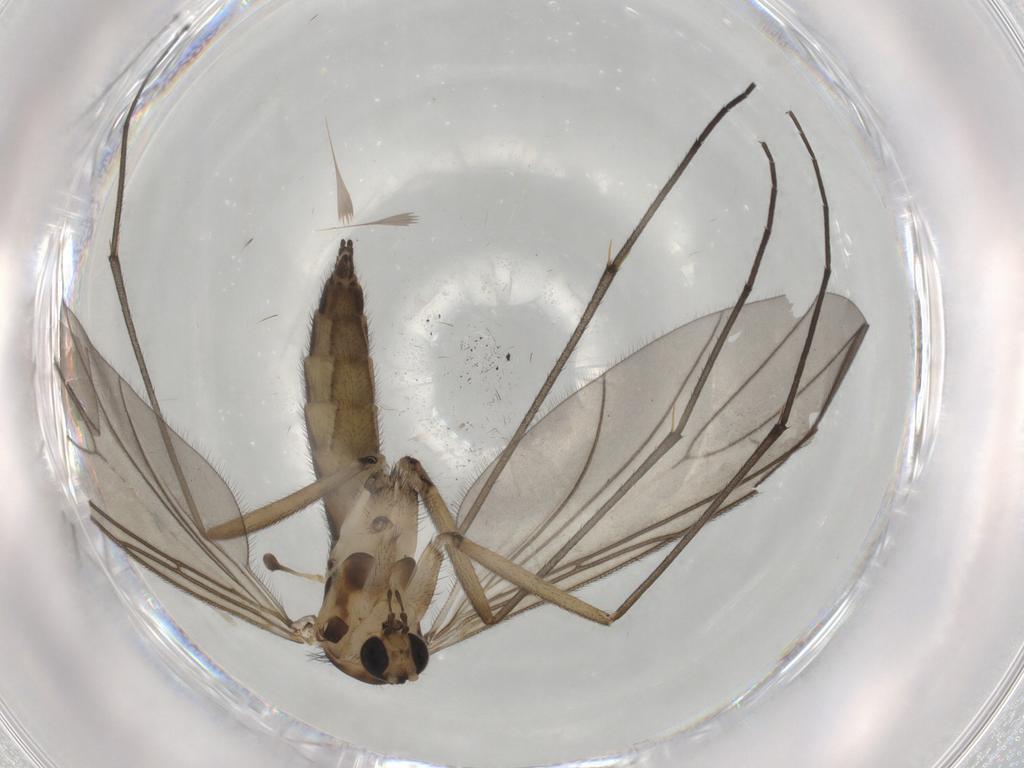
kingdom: Animalia
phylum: Arthropoda
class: Insecta
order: Diptera
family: Sciaridae
